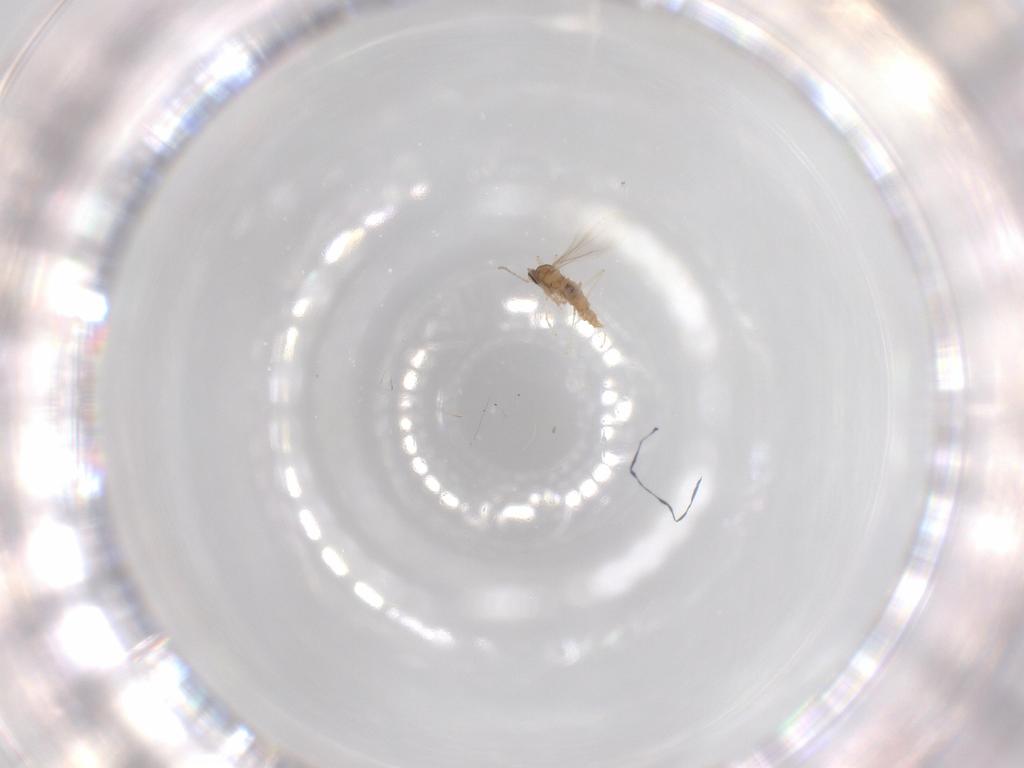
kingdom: Animalia
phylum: Arthropoda
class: Insecta
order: Diptera
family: Cecidomyiidae
